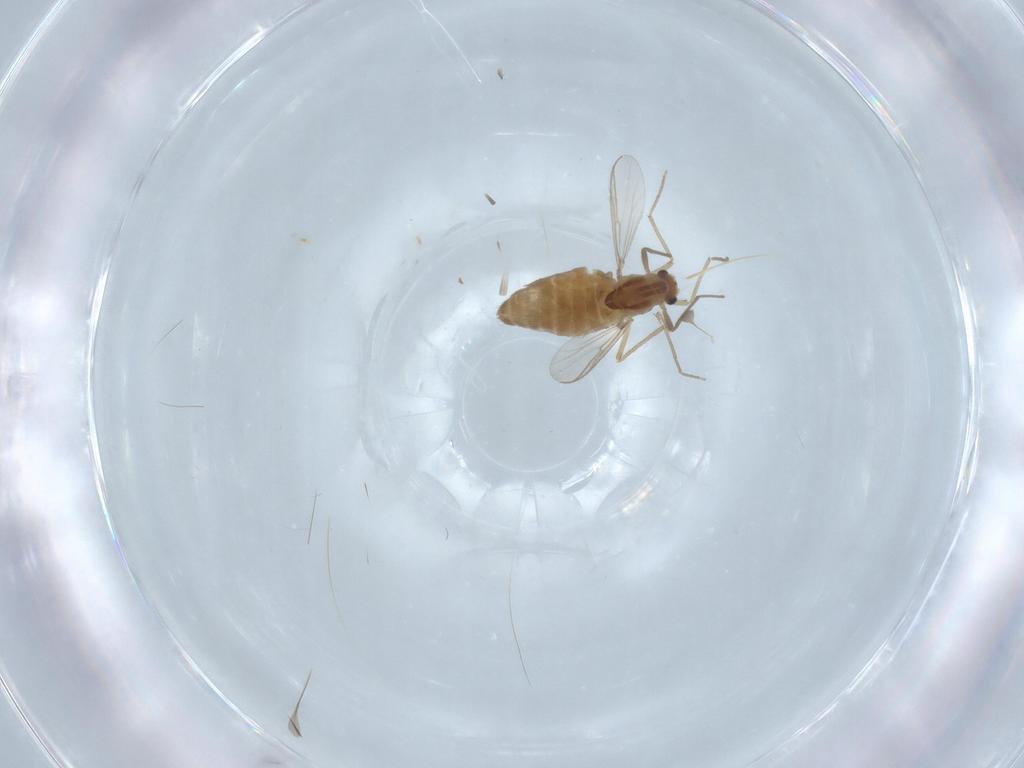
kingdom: Animalia
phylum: Arthropoda
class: Insecta
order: Diptera
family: Chironomidae
